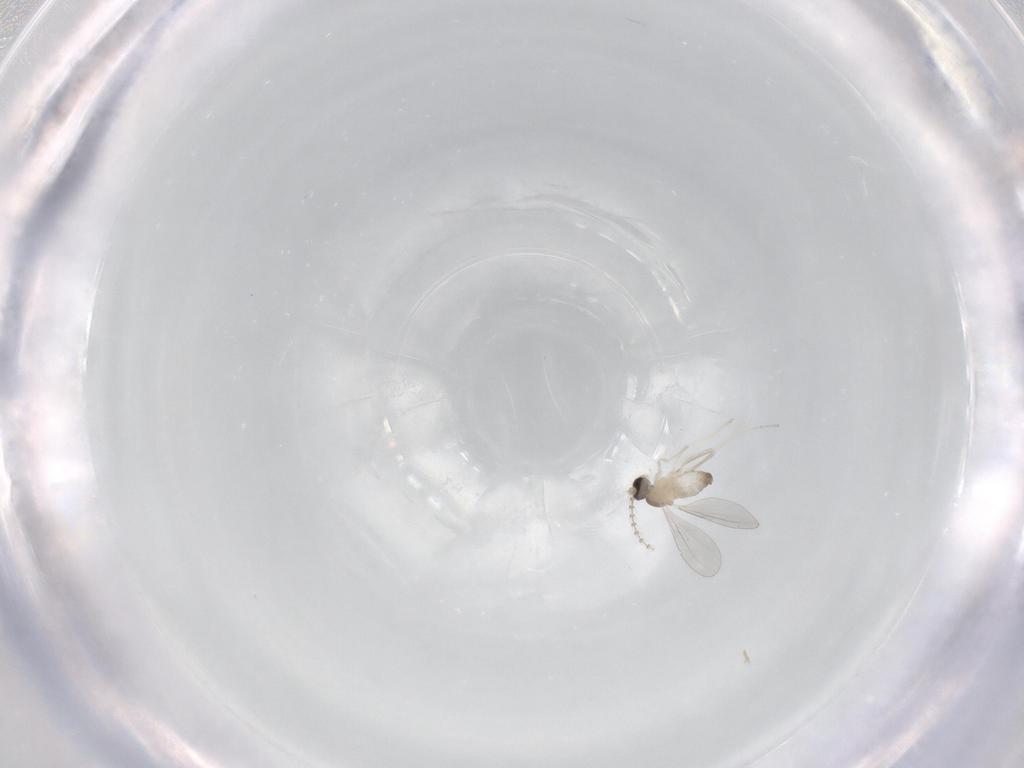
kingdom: Animalia
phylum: Arthropoda
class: Insecta
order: Diptera
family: Cecidomyiidae
